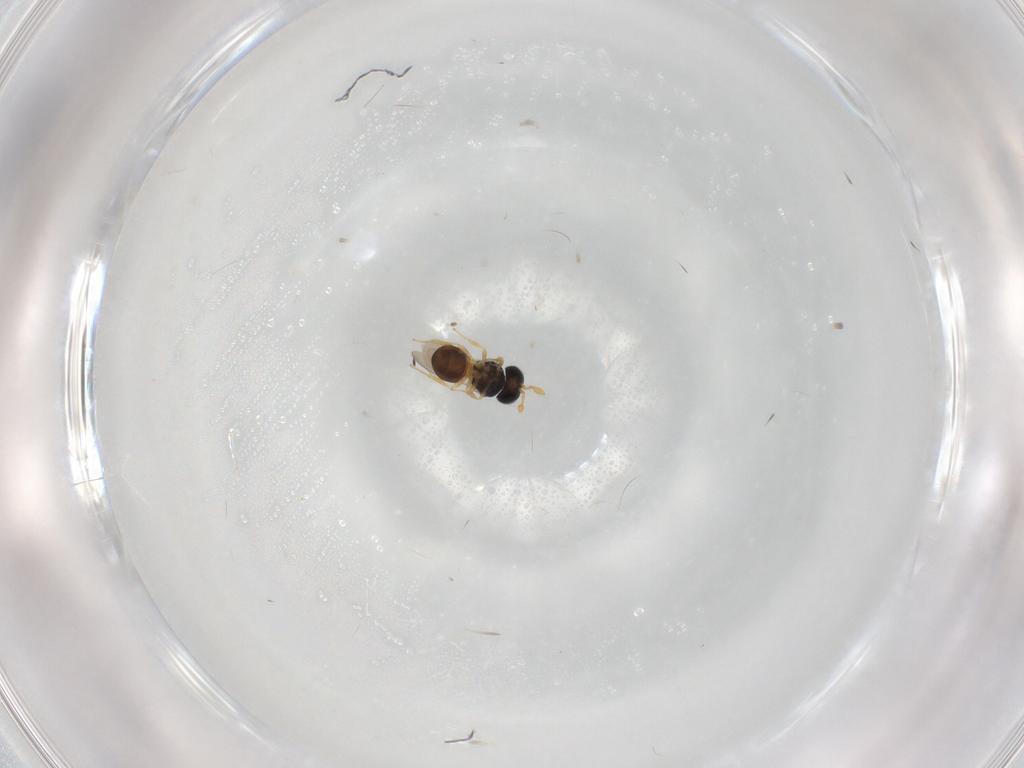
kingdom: Animalia
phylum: Arthropoda
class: Insecta
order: Hymenoptera
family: Scelionidae
